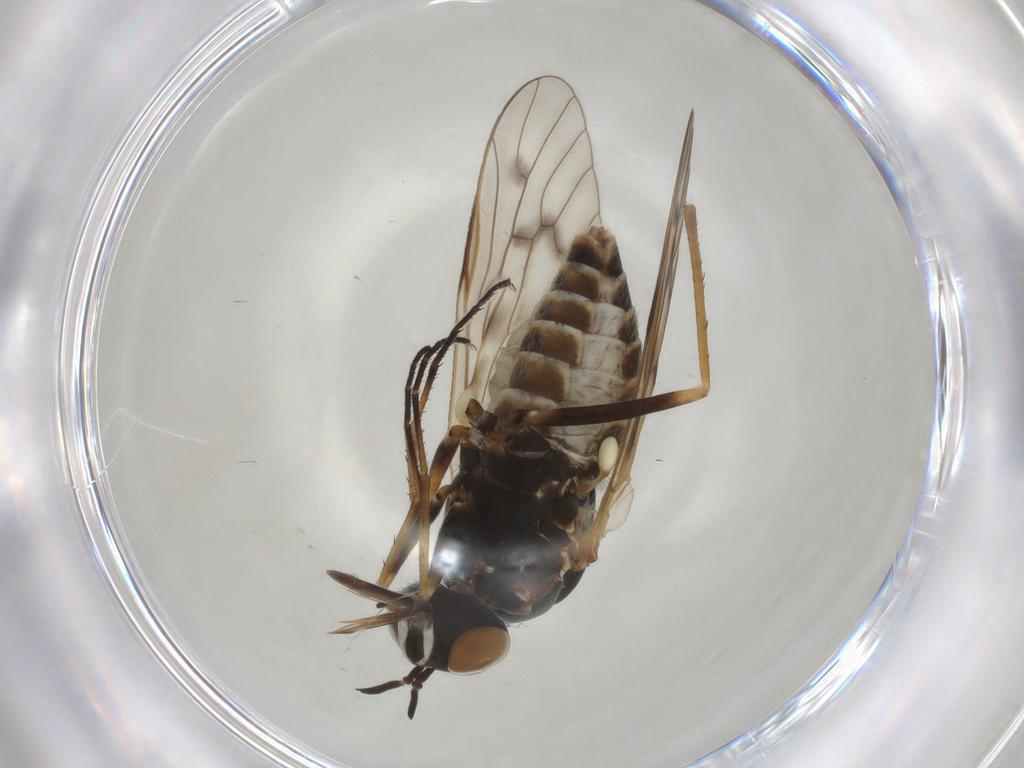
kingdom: Animalia
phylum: Arthropoda
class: Insecta
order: Diptera
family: Bombyliidae
